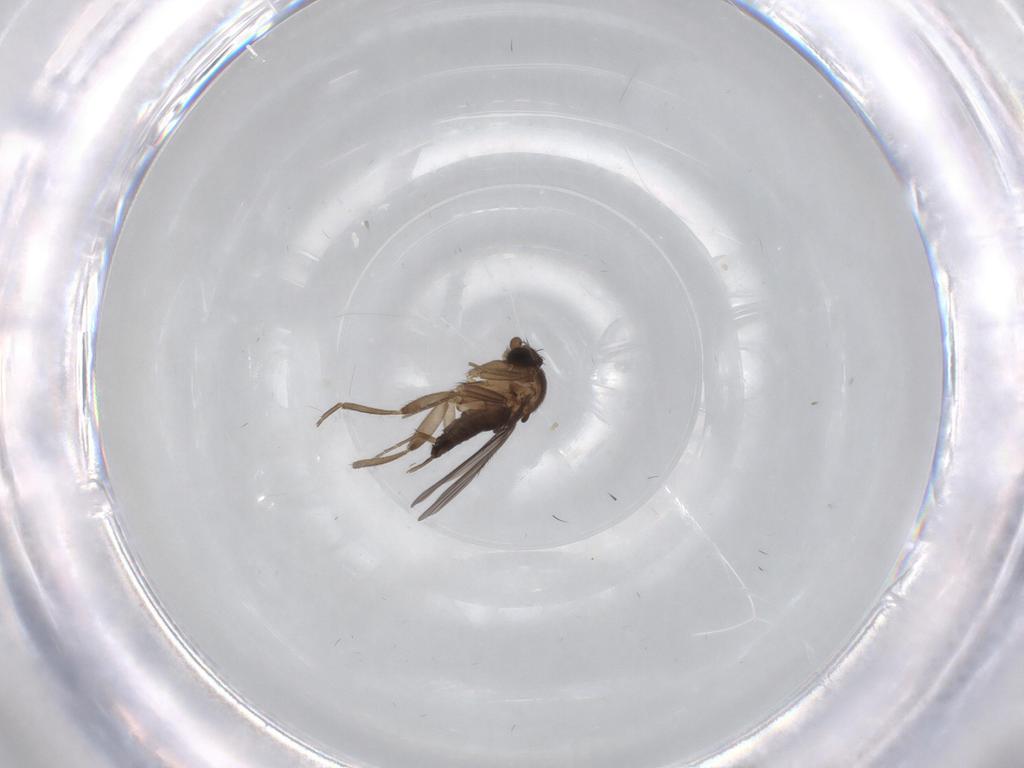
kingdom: Animalia
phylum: Arthropoda
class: Insecta
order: Diptera
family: Phoridae
